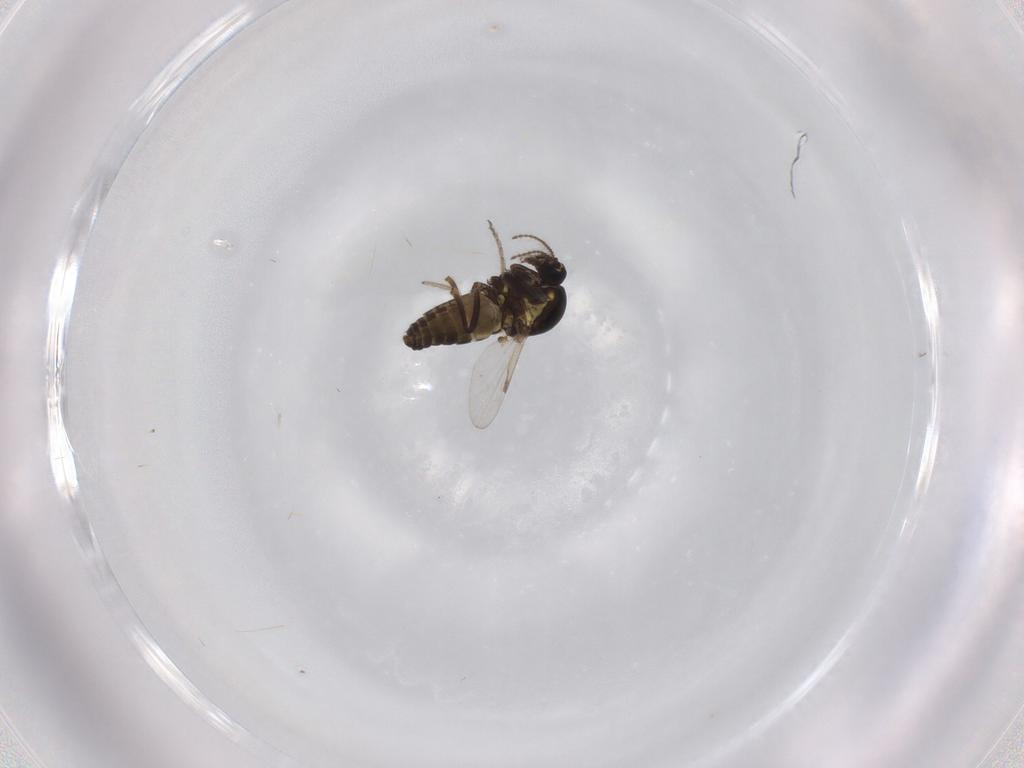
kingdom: Animalia
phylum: Arthropoda
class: Insecta
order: Diptera
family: Ceratopogonidae
